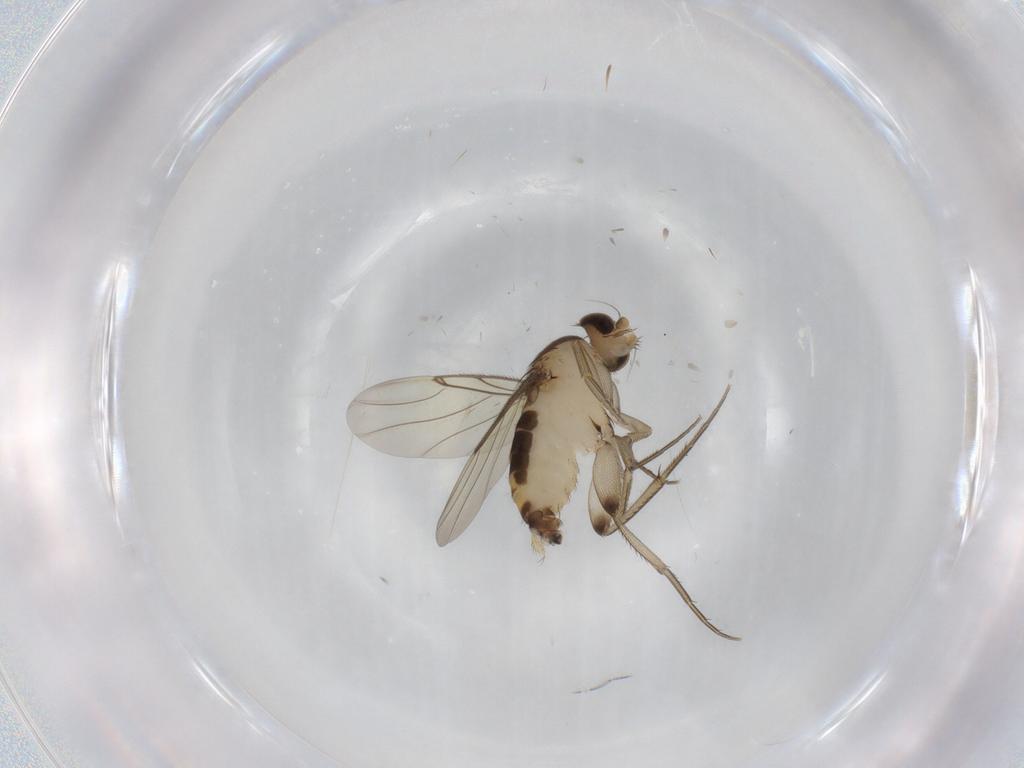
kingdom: Animalia
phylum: Arthropoda
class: Insecta
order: Diptera
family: Phoridae
